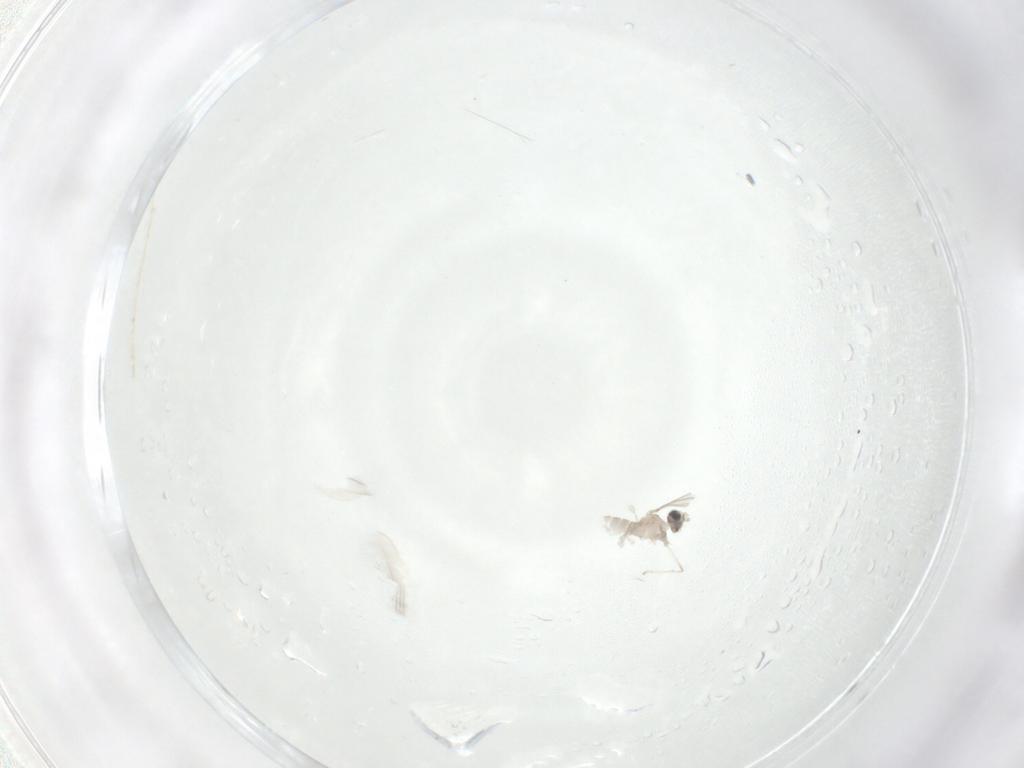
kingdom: Animalia
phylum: Arthropoda
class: Insecta
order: Diptera
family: Cecidomyiidae
